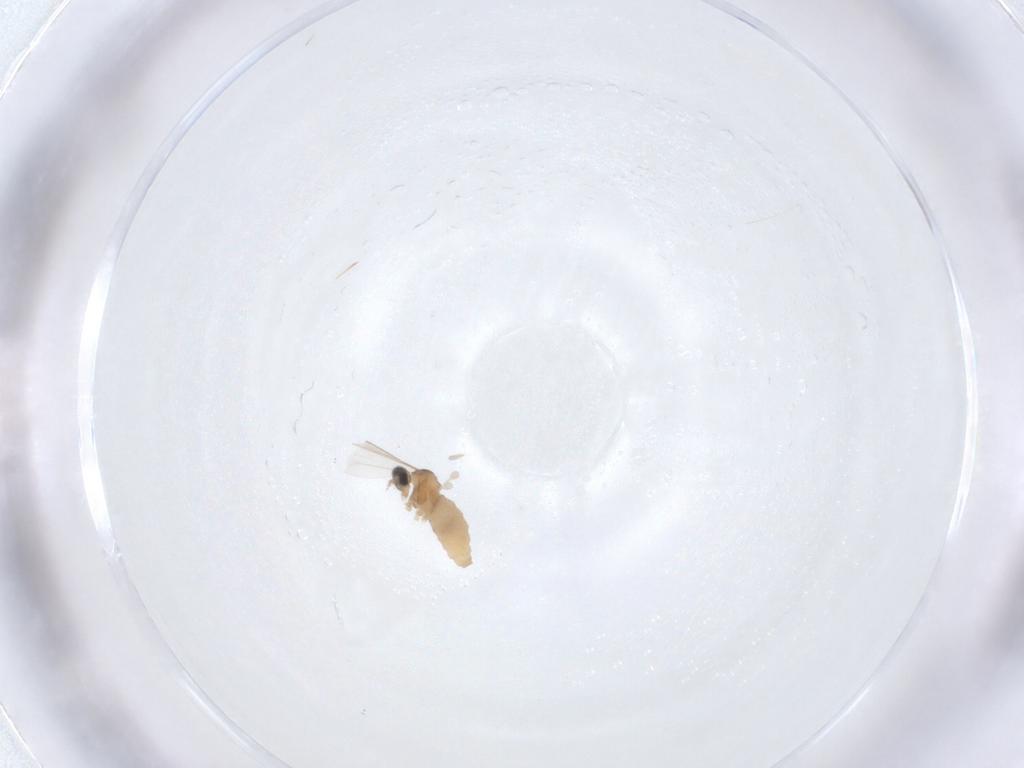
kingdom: Animalia
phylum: Arthropoda
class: Insecta
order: Diptera
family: Cecidomyiidae
